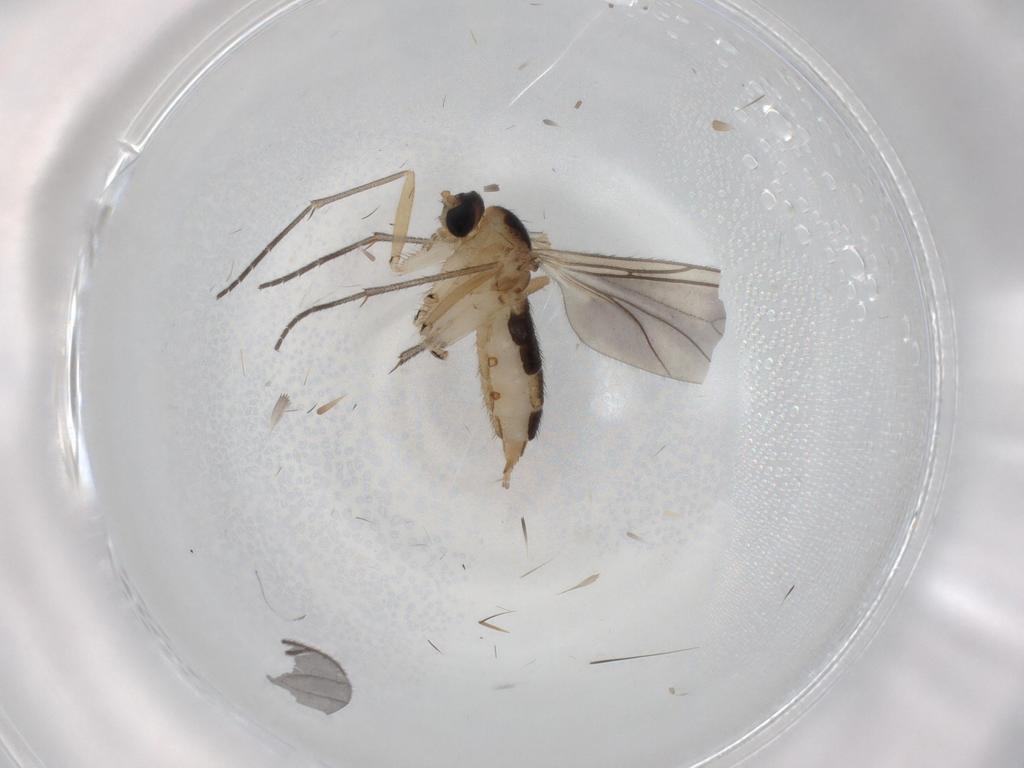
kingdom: Animalia
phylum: Arthropoda
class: Insecta
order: Diptera
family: Sciaridae
